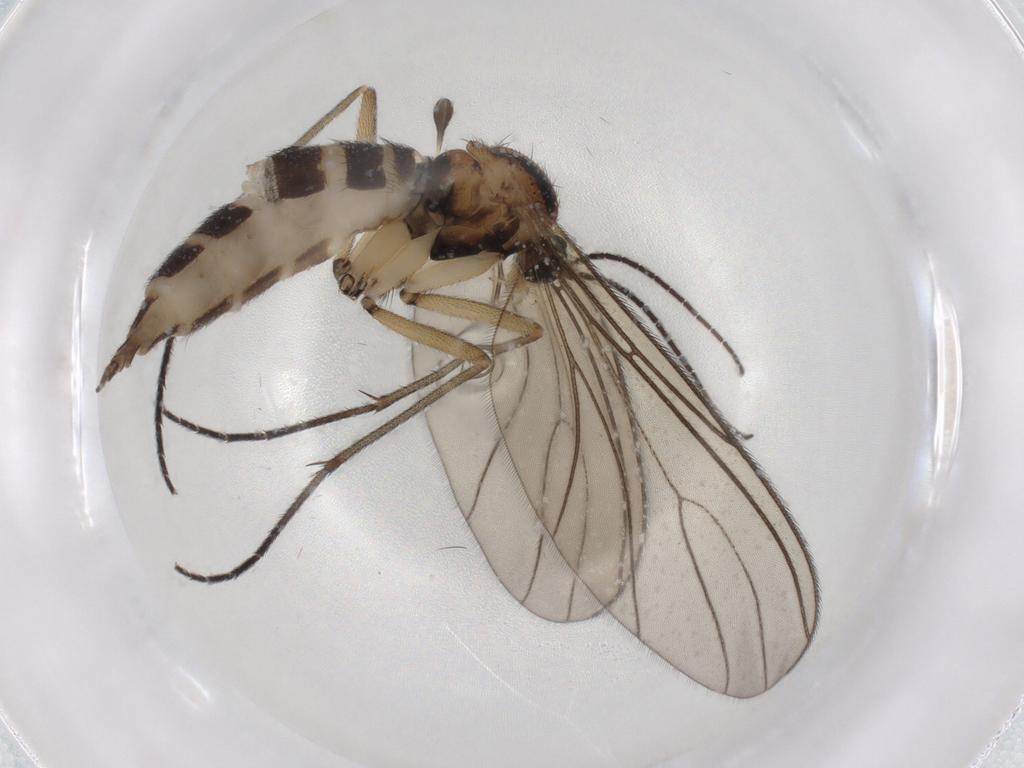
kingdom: Animalia
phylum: Arthropoda
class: Insecta
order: Diptera
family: Sciaridae
